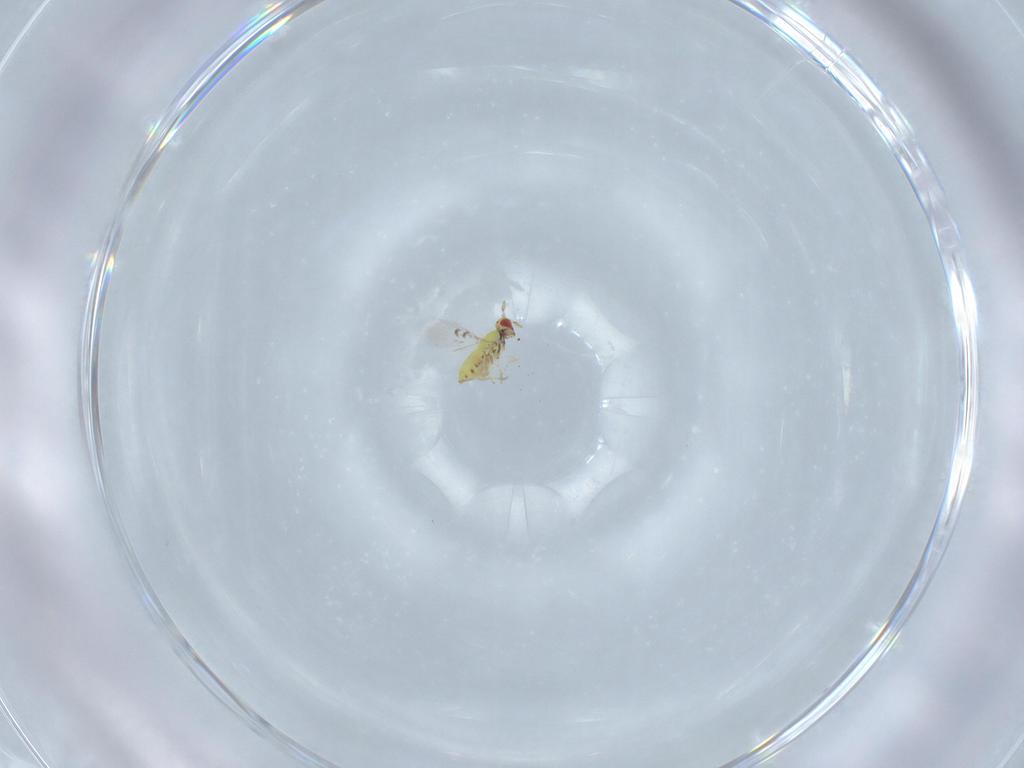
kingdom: Animalia
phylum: Arthropoda
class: Insecta
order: Hymenoptera
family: Trichogrammatidae
